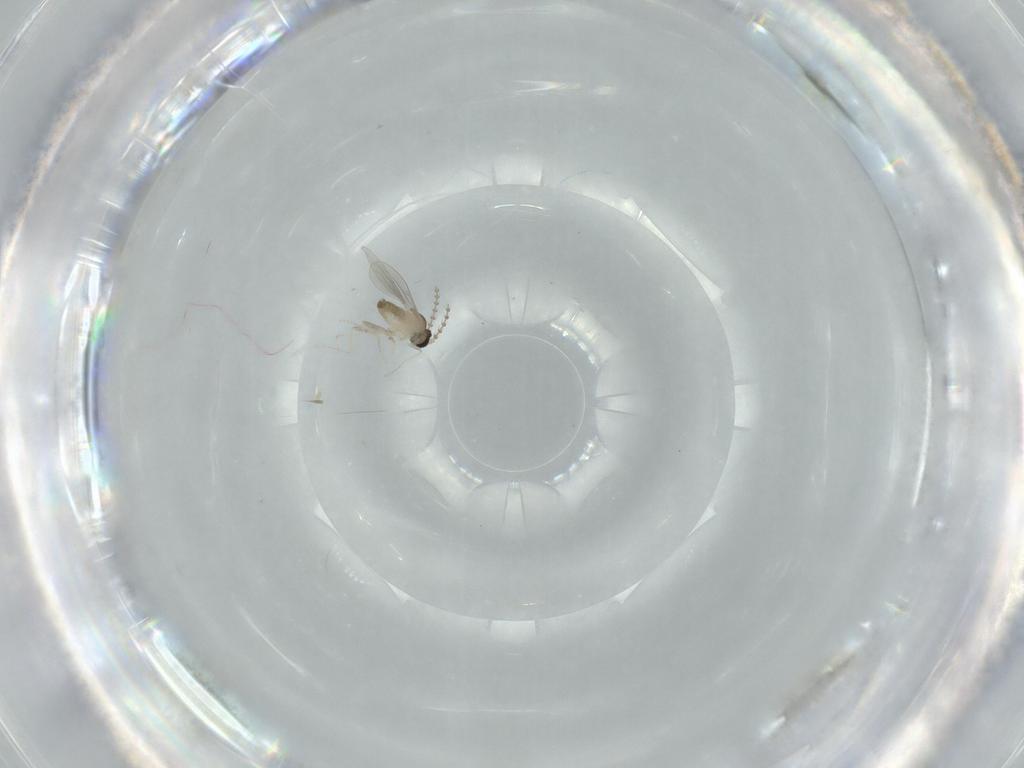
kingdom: Animalia
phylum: Arthropoda
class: Insecta
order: Diptera
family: Cecidomyiidae
